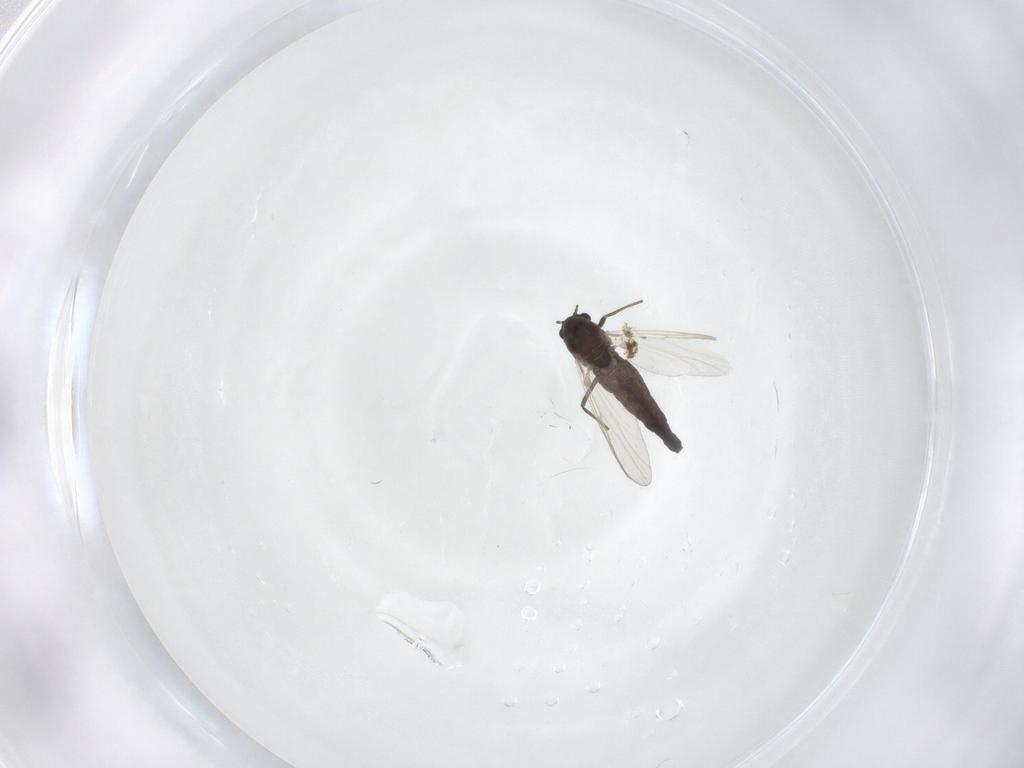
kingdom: Animalia
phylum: Arthropoda
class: Insecta
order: Diptera
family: Chironomidae
